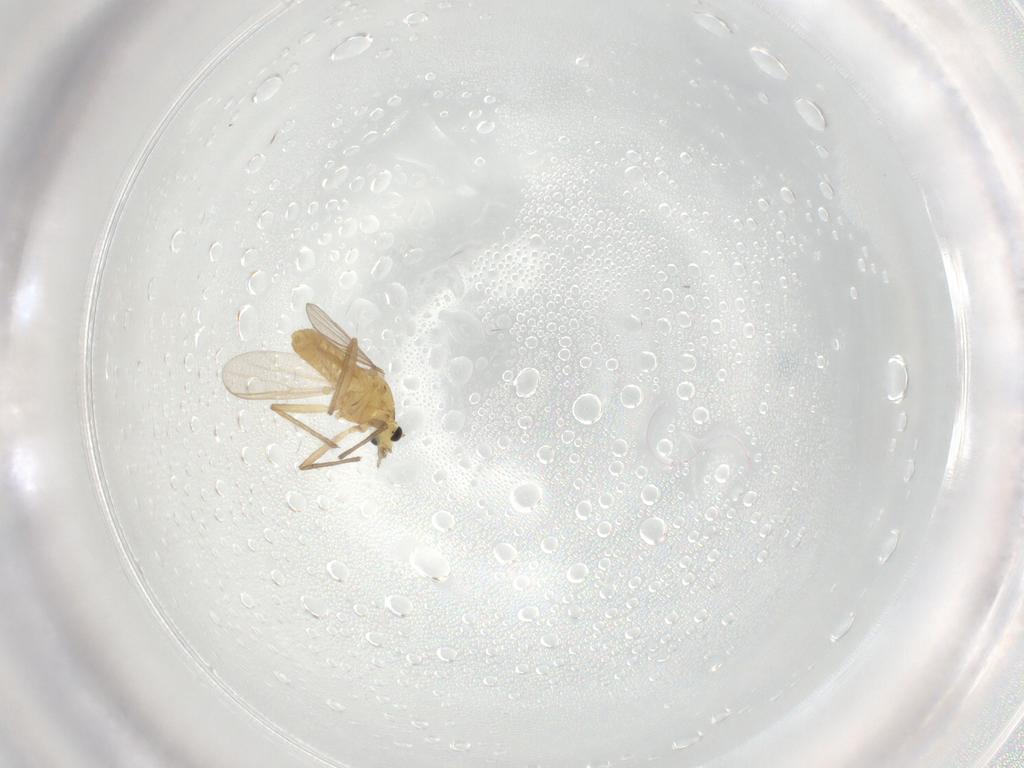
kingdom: Animalia
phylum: Arthropoda
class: Insecta
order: Diptera
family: Chironomidae
